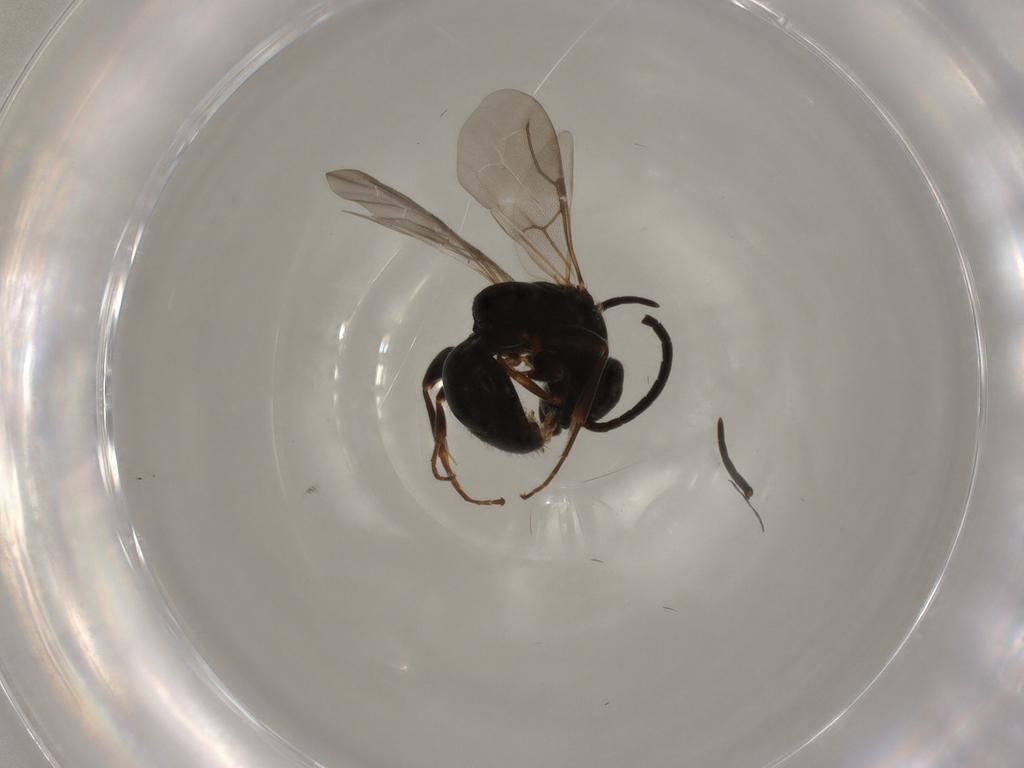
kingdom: Animalia
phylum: Arthropoda
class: Insecta
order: Hymenoptera
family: Bethylidae
